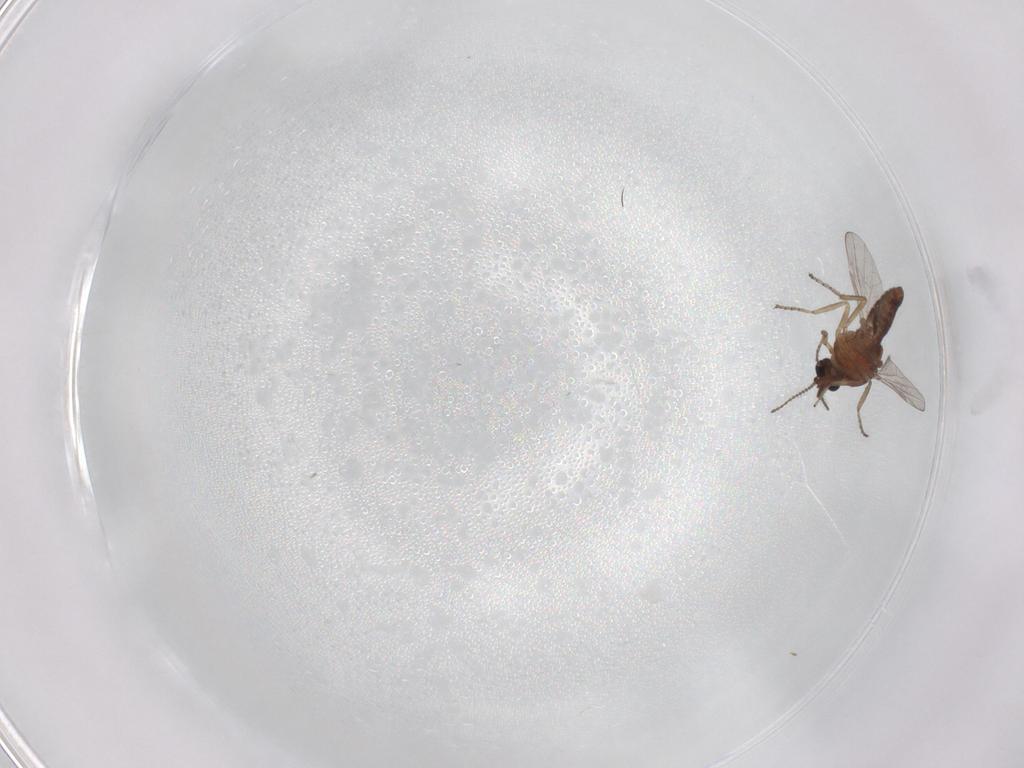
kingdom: Animalia
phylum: Arthropoda
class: Insecta
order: Diptera
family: Ceratopogonidae
